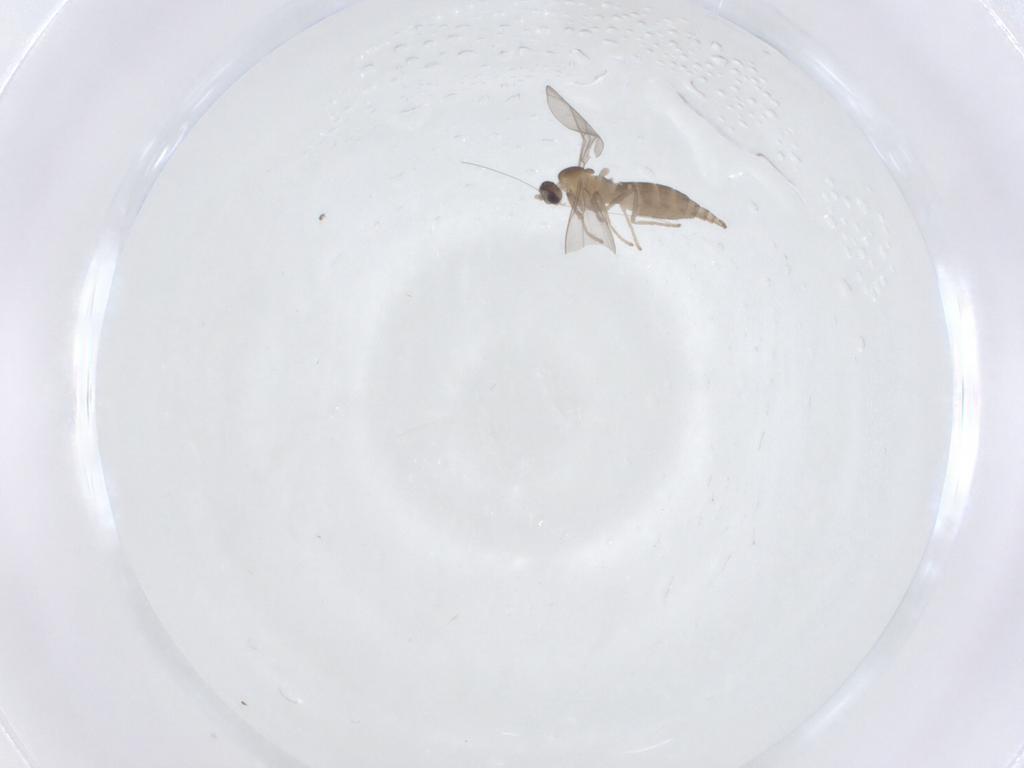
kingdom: Animalia
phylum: Arthropoda
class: Insecta
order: Diptera
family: Cecidomyiidae
